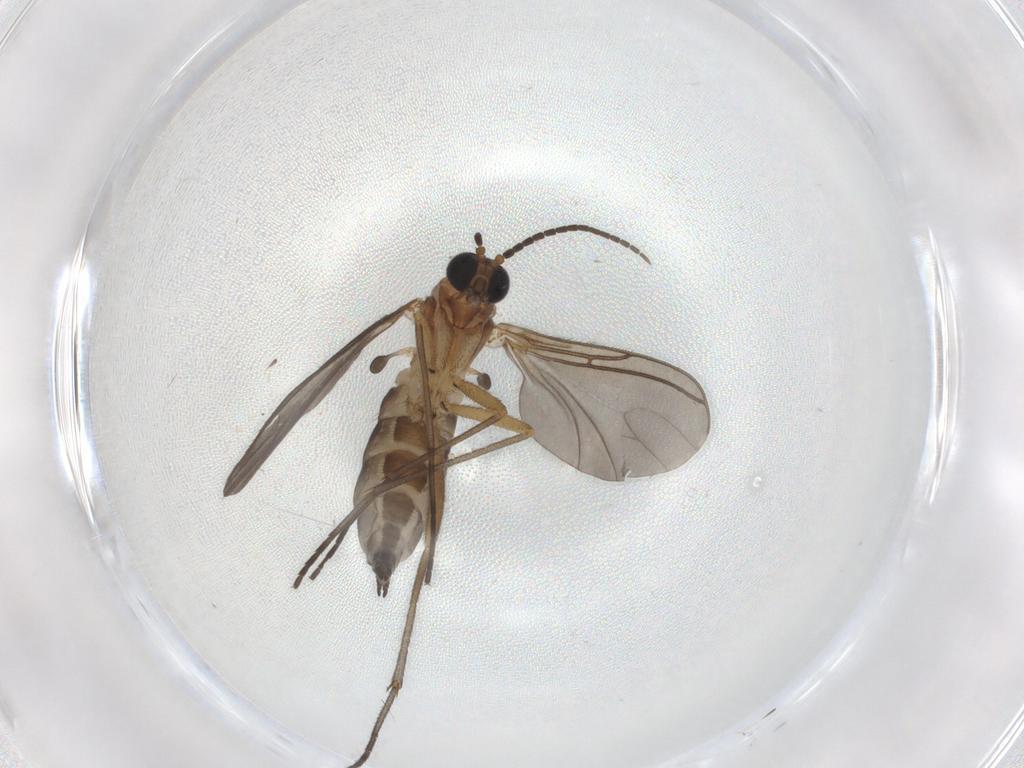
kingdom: Animalia
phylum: Arthropoda
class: Insecta
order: Diptera
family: Sciaridae
